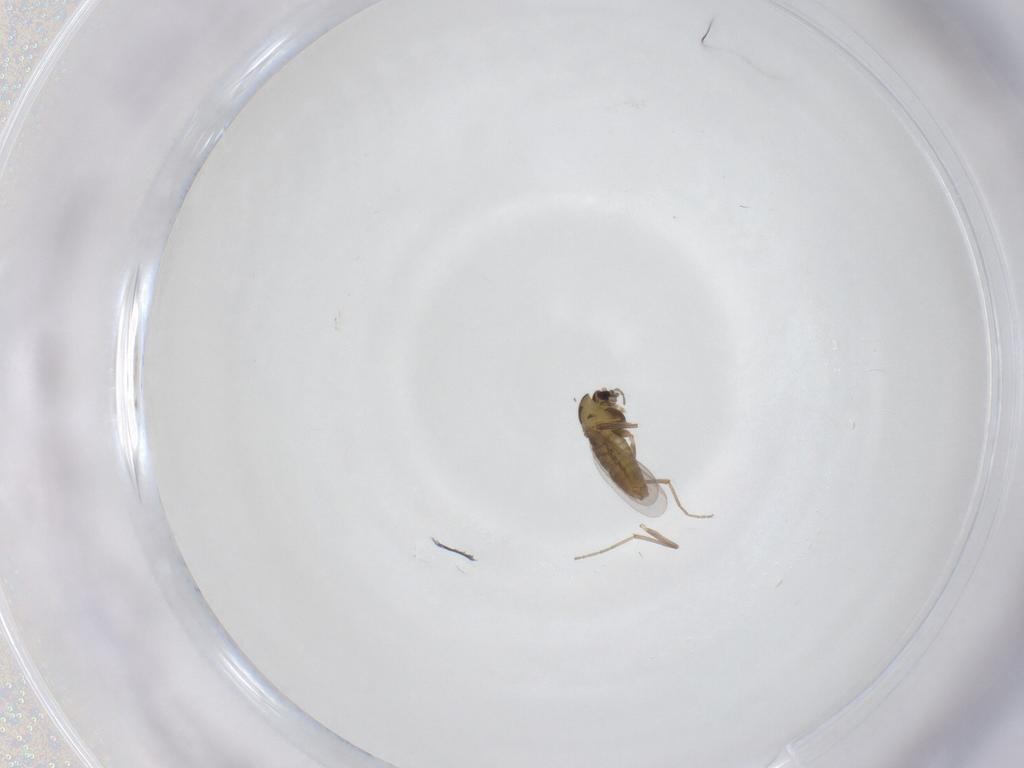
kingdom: Animalia
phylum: Arthropoda
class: Insecta
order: Diptera
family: Chironomidae
